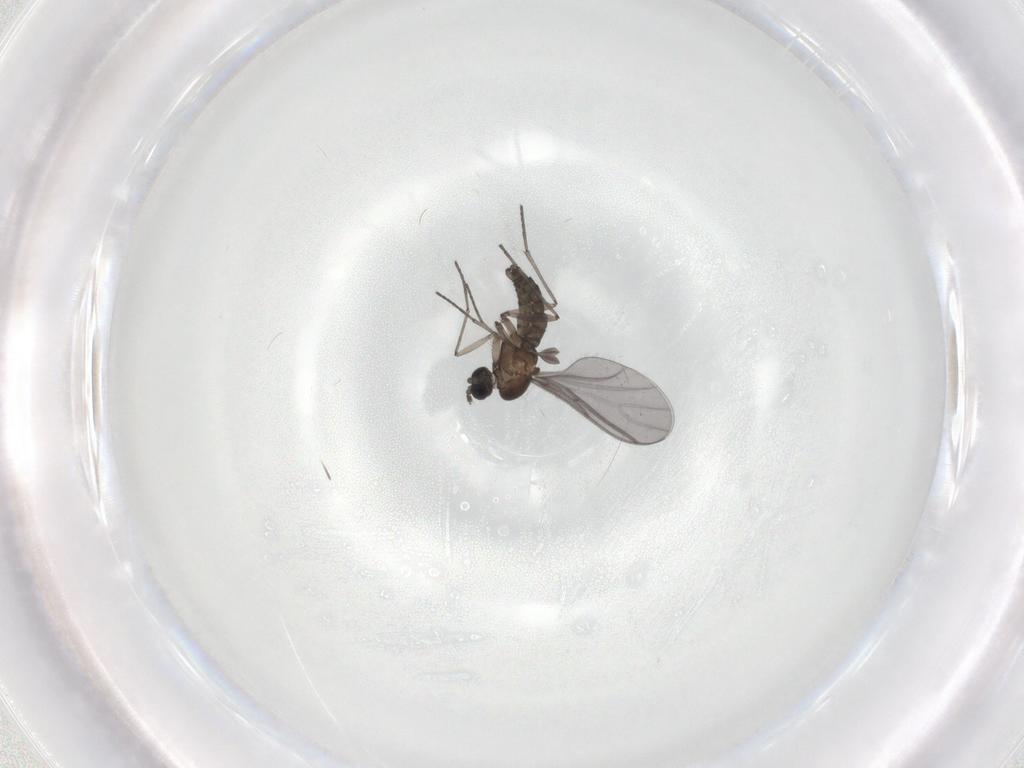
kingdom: Animalia
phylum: Arthropoda
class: Insecta
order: Diptera
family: Sciaridae
